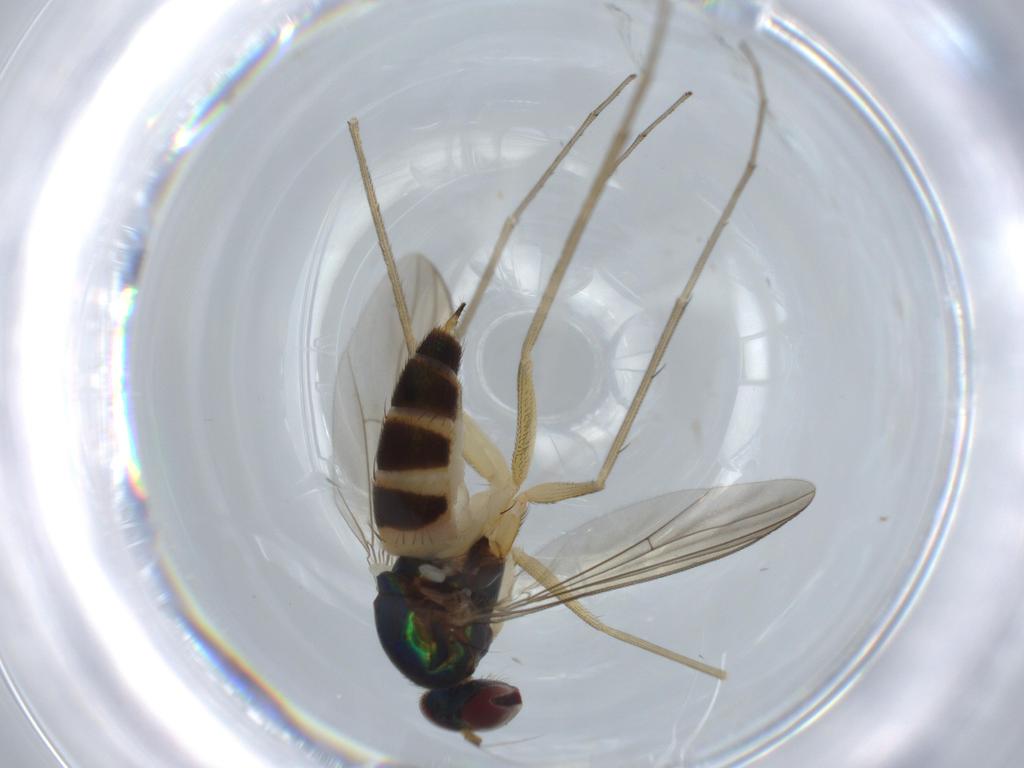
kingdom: Animalia
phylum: Arthropoda
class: Insecta
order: Diptera
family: Dolichopodidae
